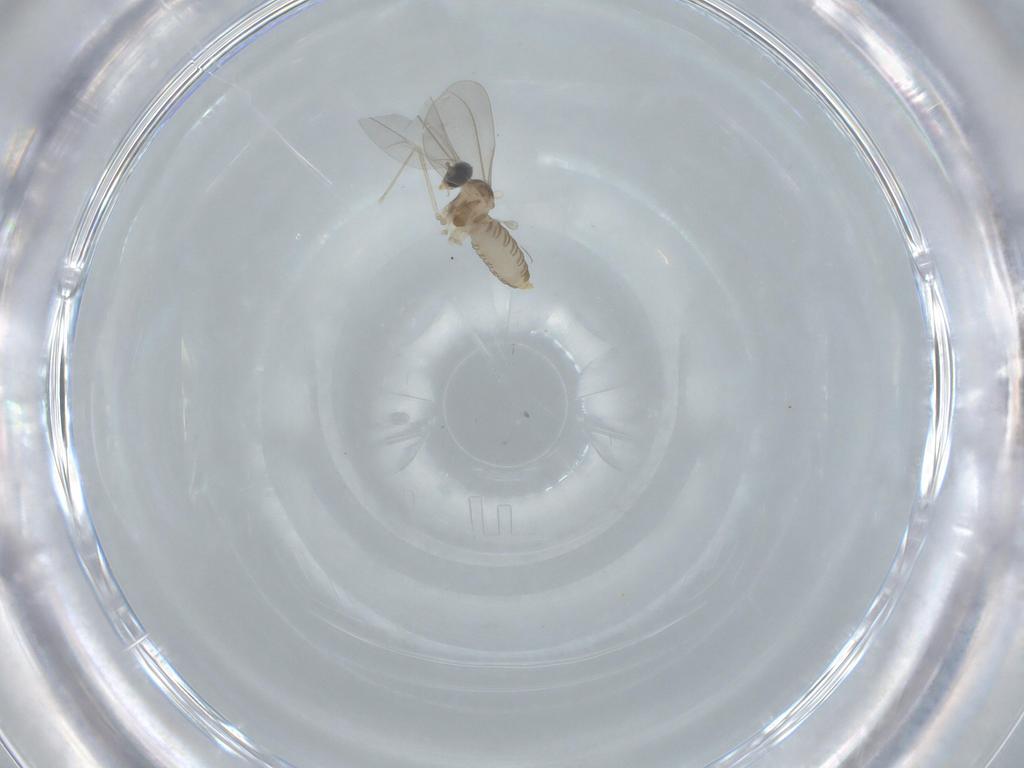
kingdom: Animalia
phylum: Arthropoda
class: Insecta
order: Diptera
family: Cecidomyiidae
